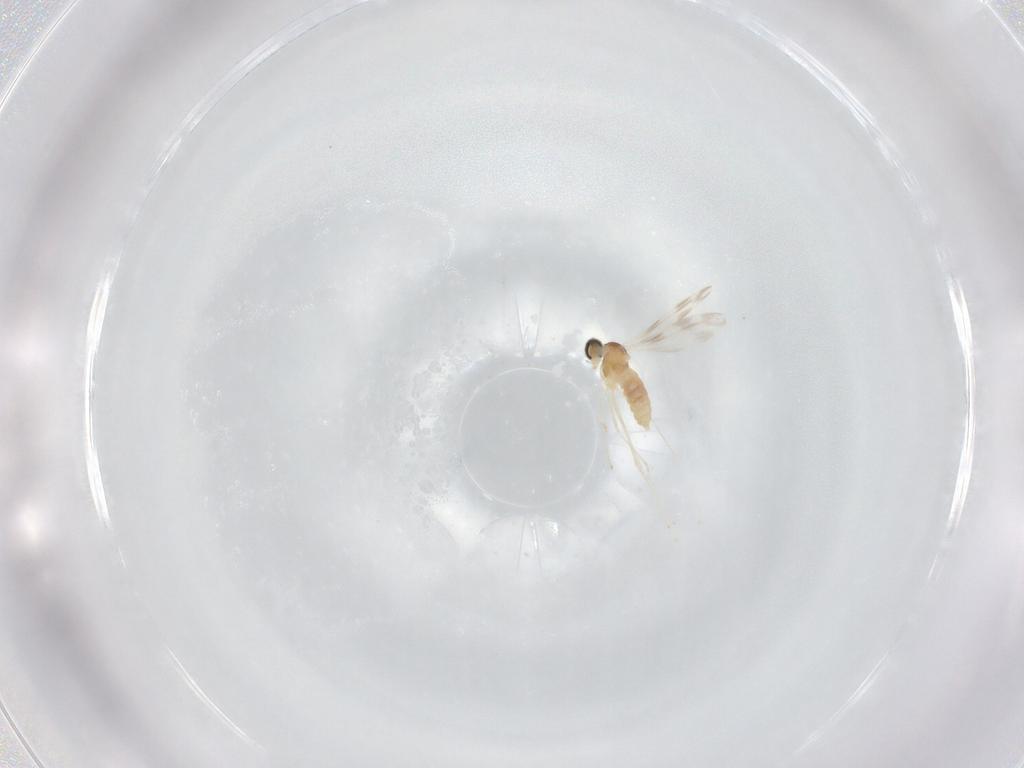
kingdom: Animalia
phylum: Arthropoda
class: Insecta
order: Diptera
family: Cecidomyiidae
